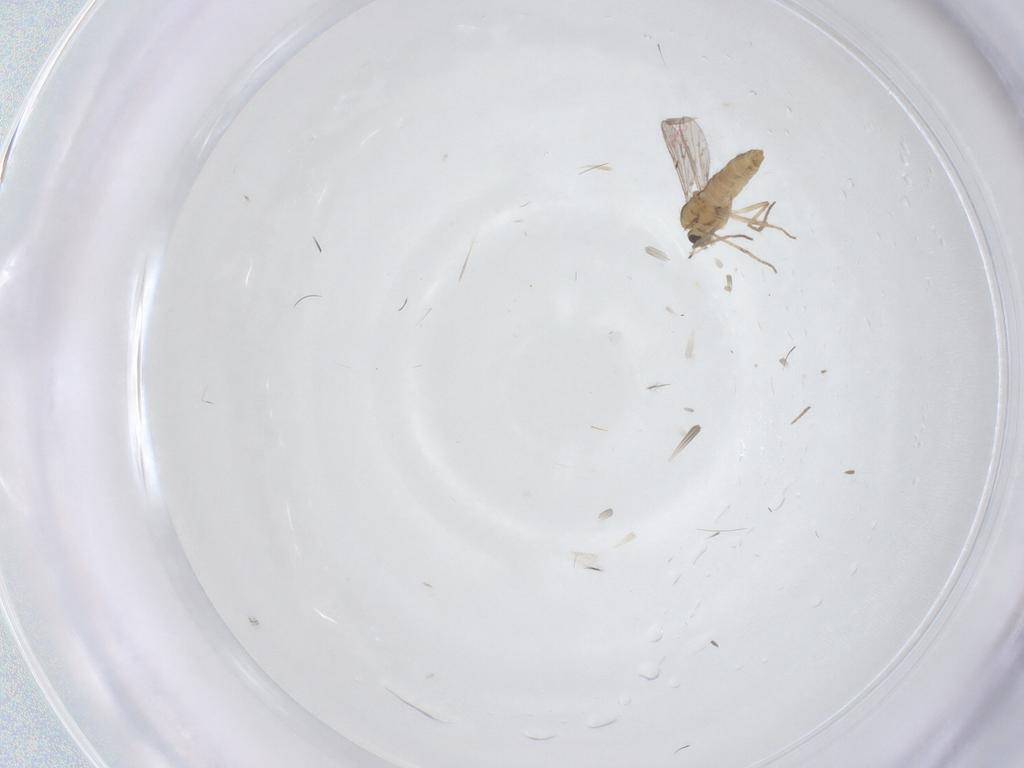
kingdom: Animalia
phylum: Arthropoda
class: Insecta
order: Diptera
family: Chironomidae
